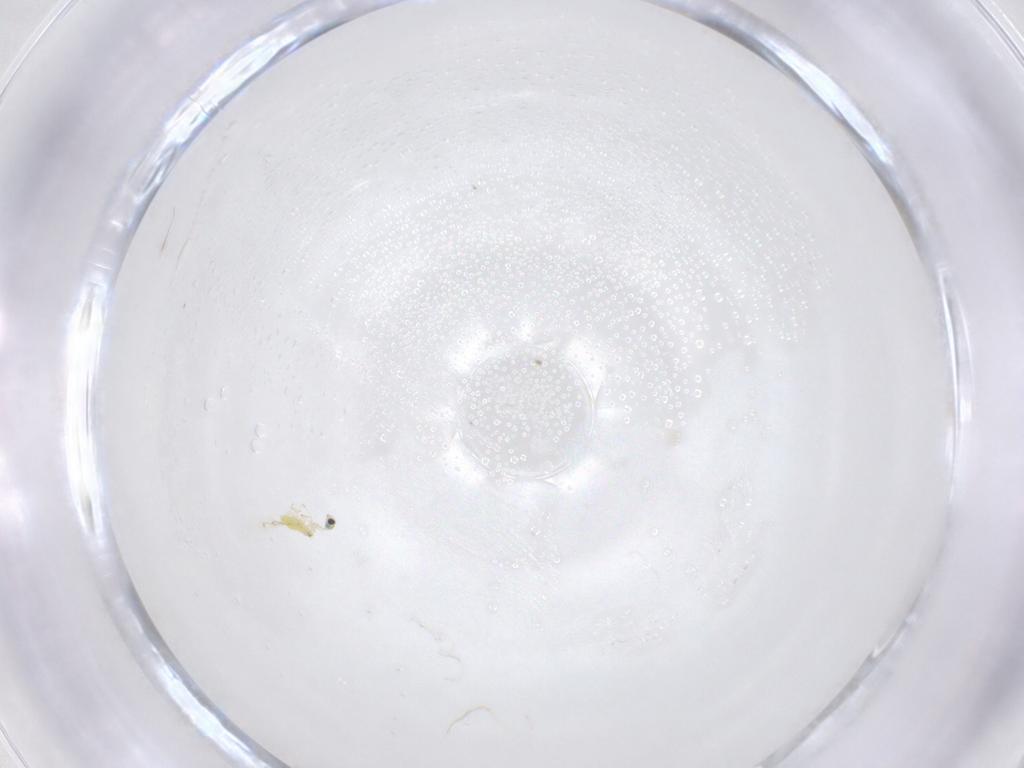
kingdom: Animalia
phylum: Arthropoda
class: Insecta
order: Hymenoptera
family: Trichogrammatidae
